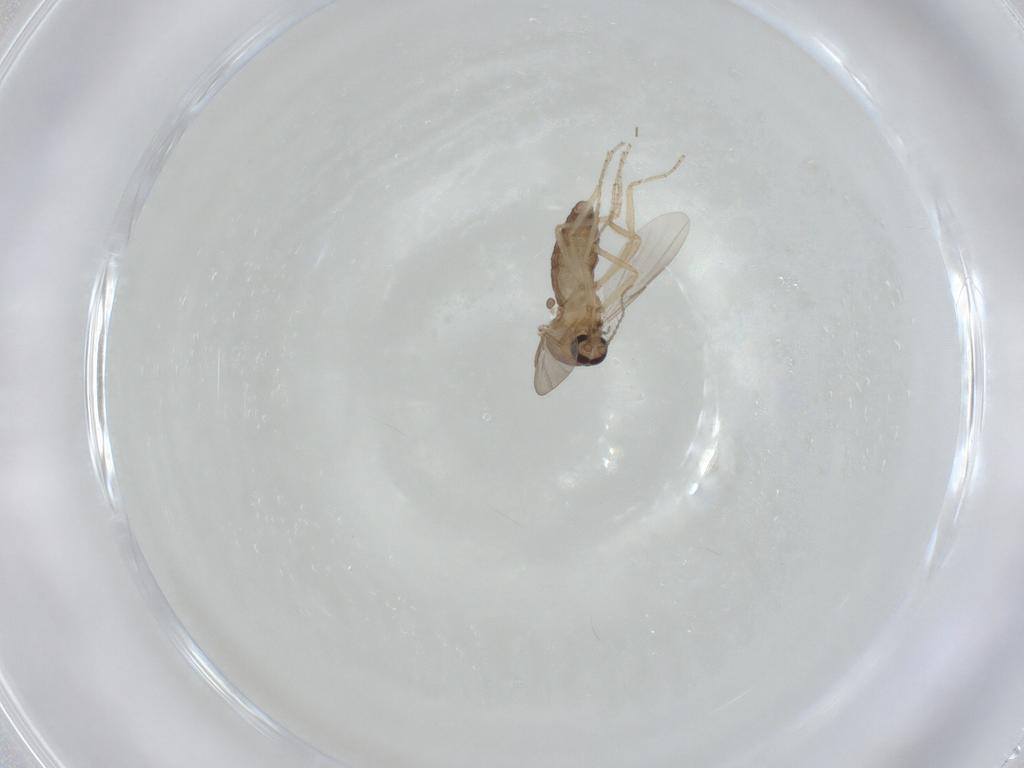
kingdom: Animalia
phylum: Arthropoda
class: Insecta
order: Diptera
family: Ceratopogonidae
